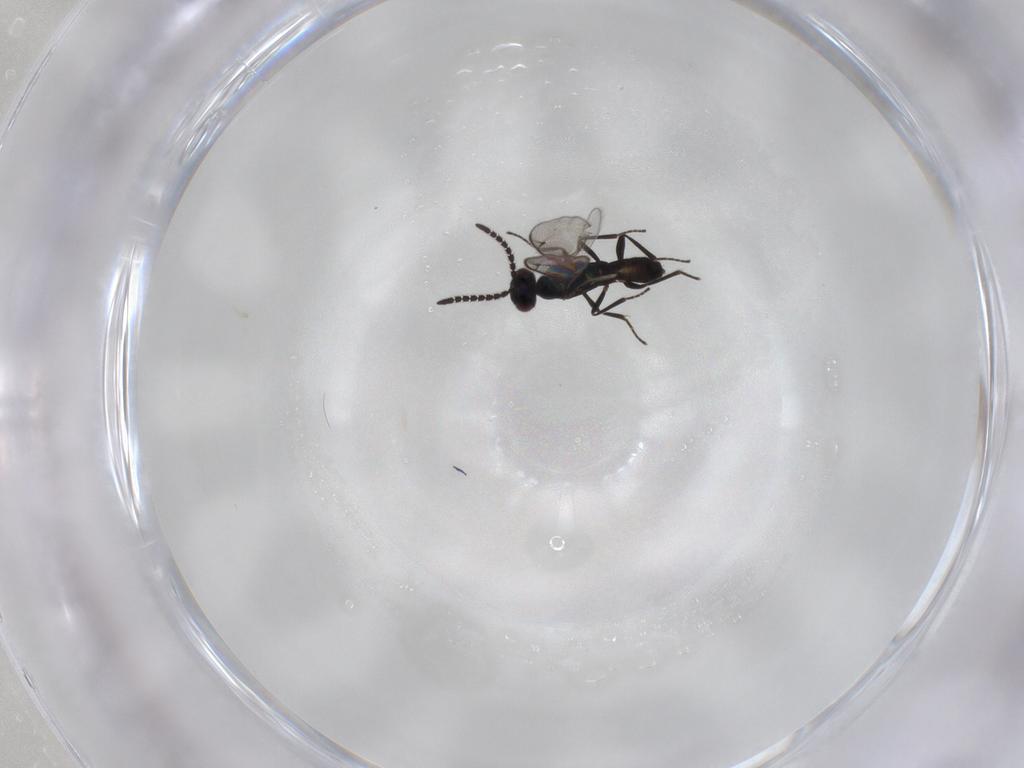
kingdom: Animalia
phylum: Arthropoda
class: Insecta
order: Hymenoptera
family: Eupelmidae
